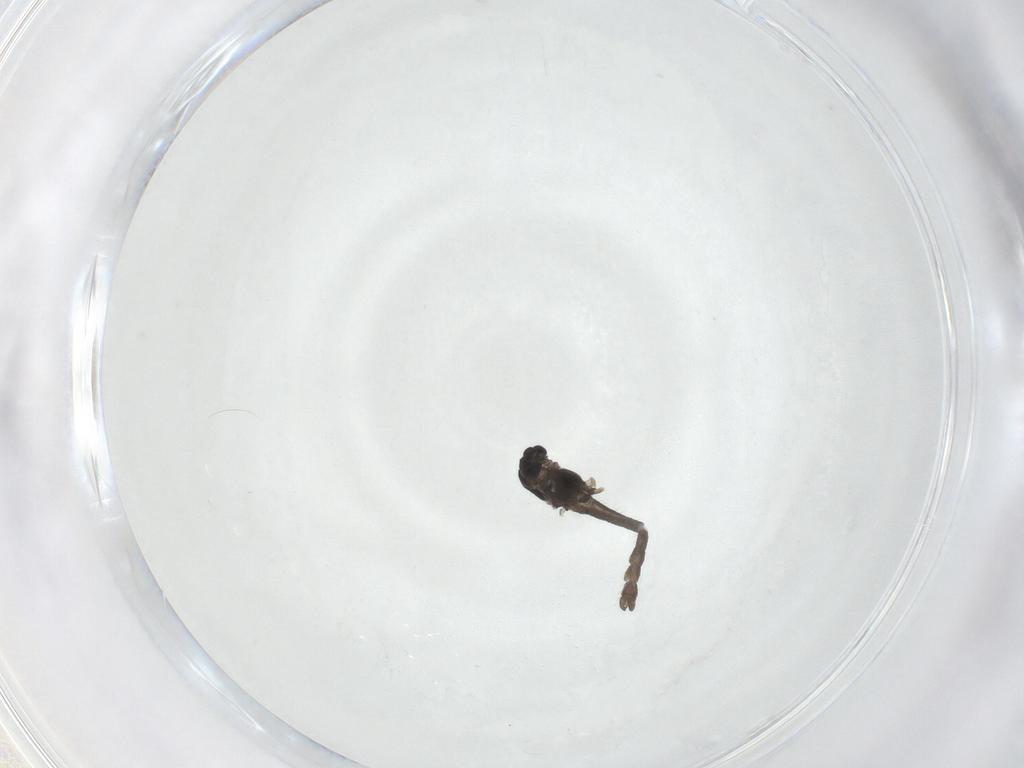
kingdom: Animalia
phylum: Arthropoda
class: Insecta
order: Diptera
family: Chironomidae
